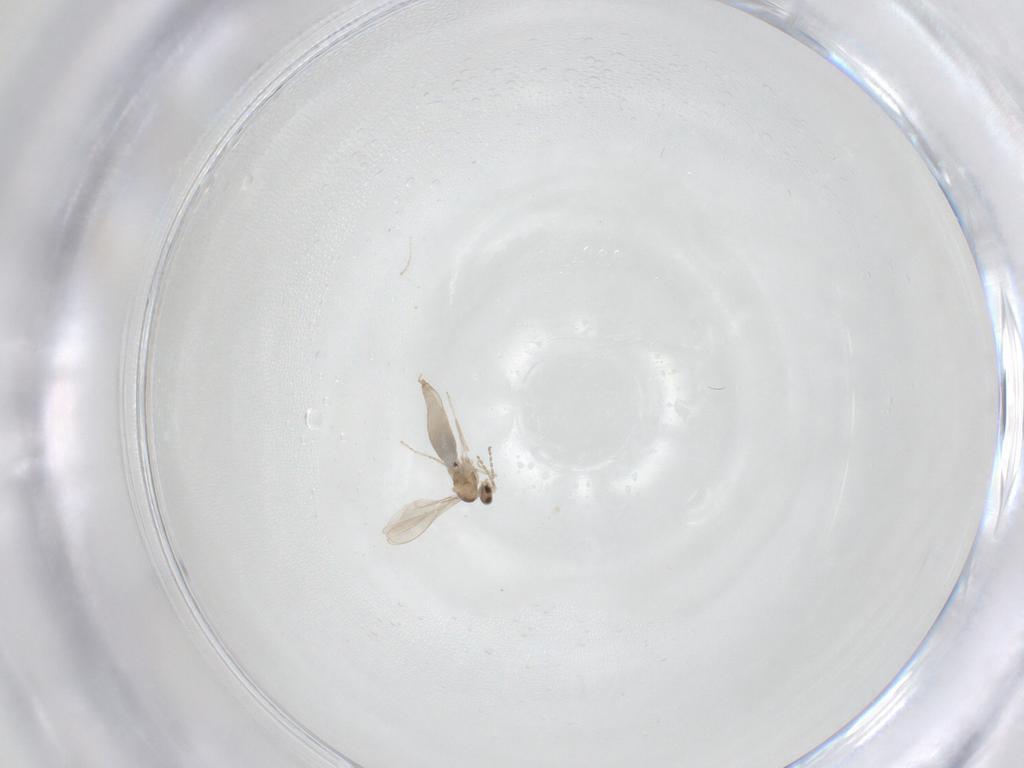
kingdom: Animalia
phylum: Arthropoda
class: Insecta
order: Diptera
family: Cecidomyiidae
